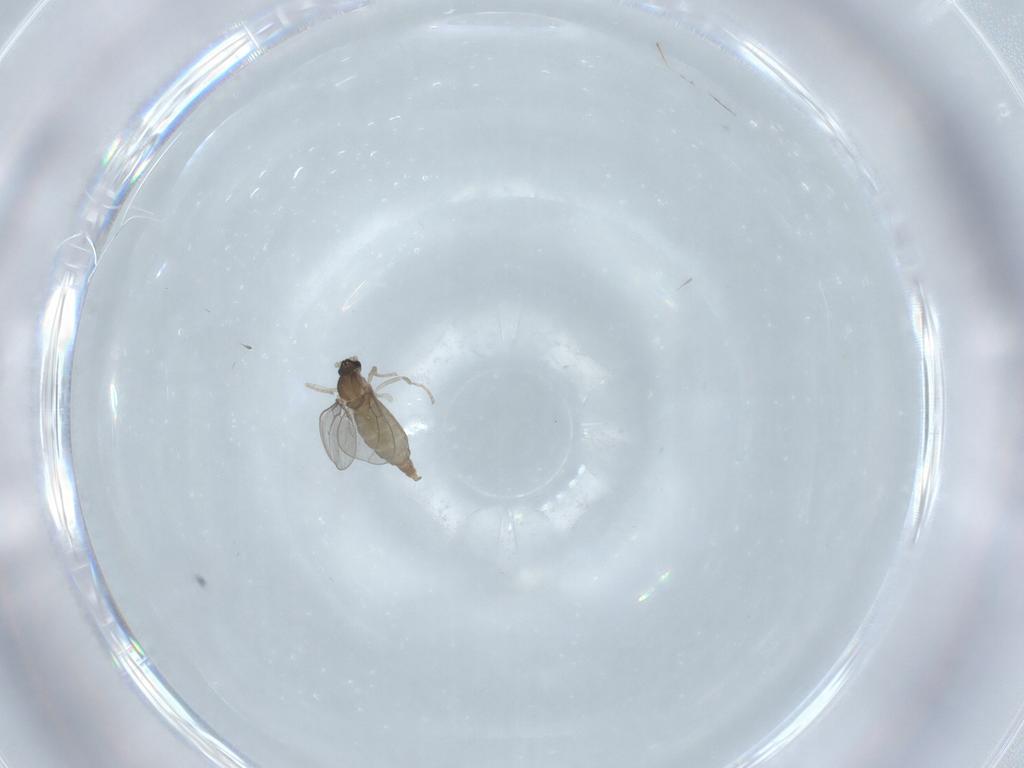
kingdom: Animalia
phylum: Arthropoda
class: Insecta
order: Diptera
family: Cecidomyiidae
